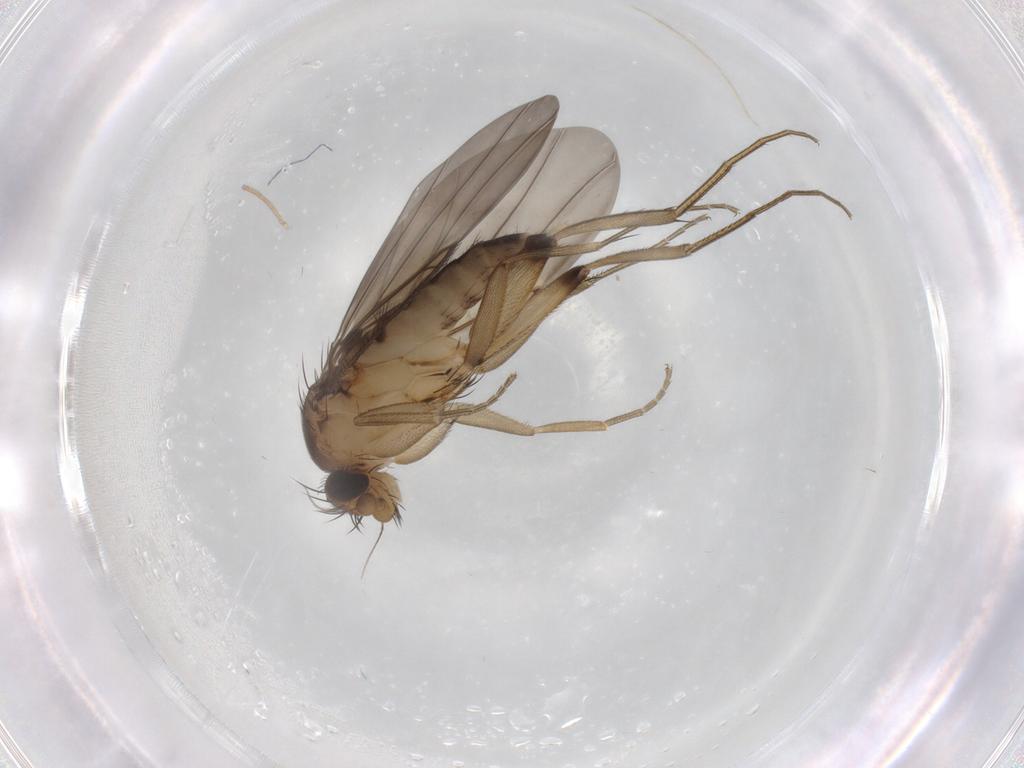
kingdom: Animalia
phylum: Arthropoda
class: Insecta
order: Diptera
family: Phoridae
